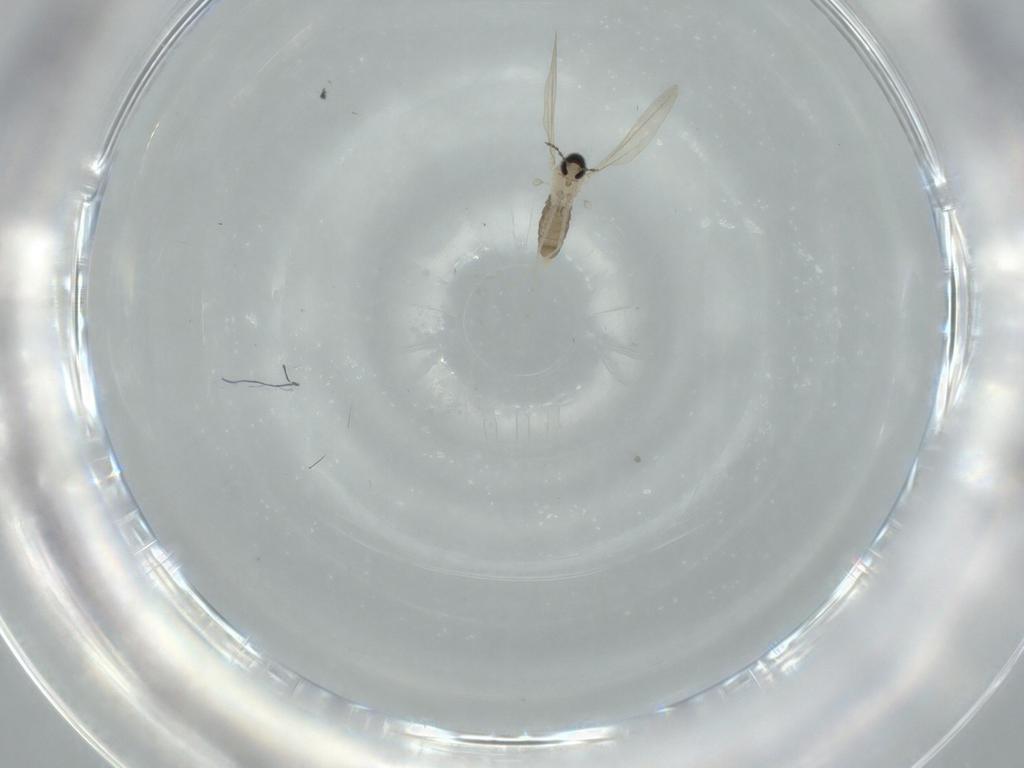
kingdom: Animalia
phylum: Arthropoda
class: Insecta
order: Diptera
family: Cecidomyiidae
